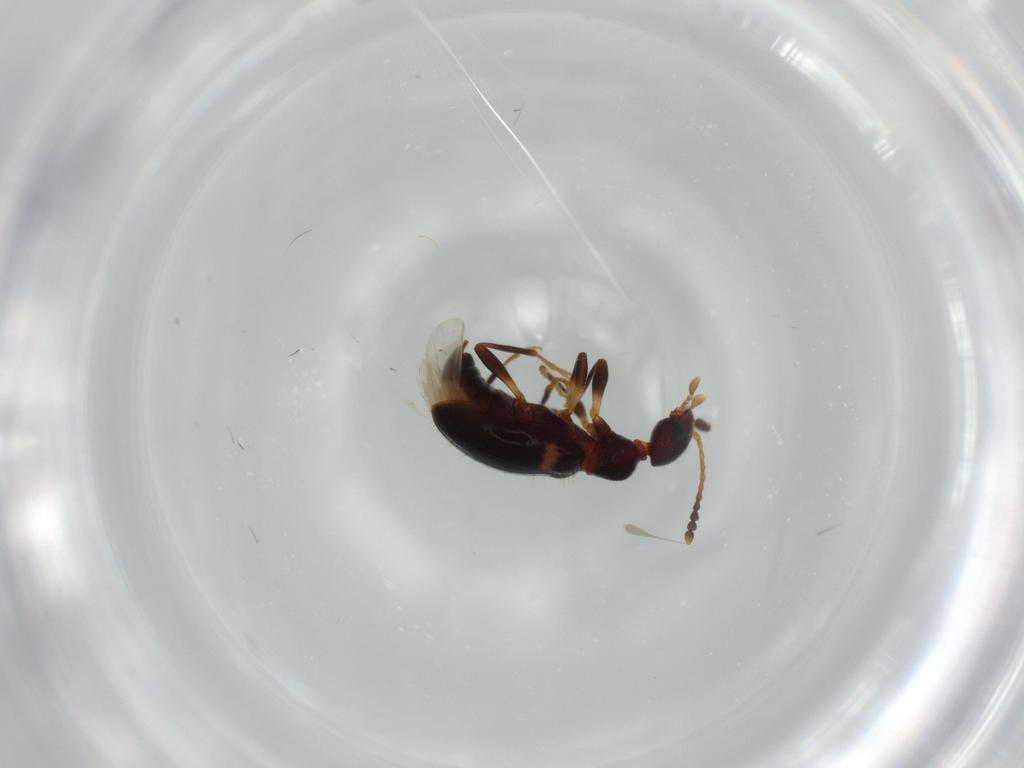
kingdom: Animalia
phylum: Arthropoda
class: Insecta
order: Coleoptera
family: Anthicidae
